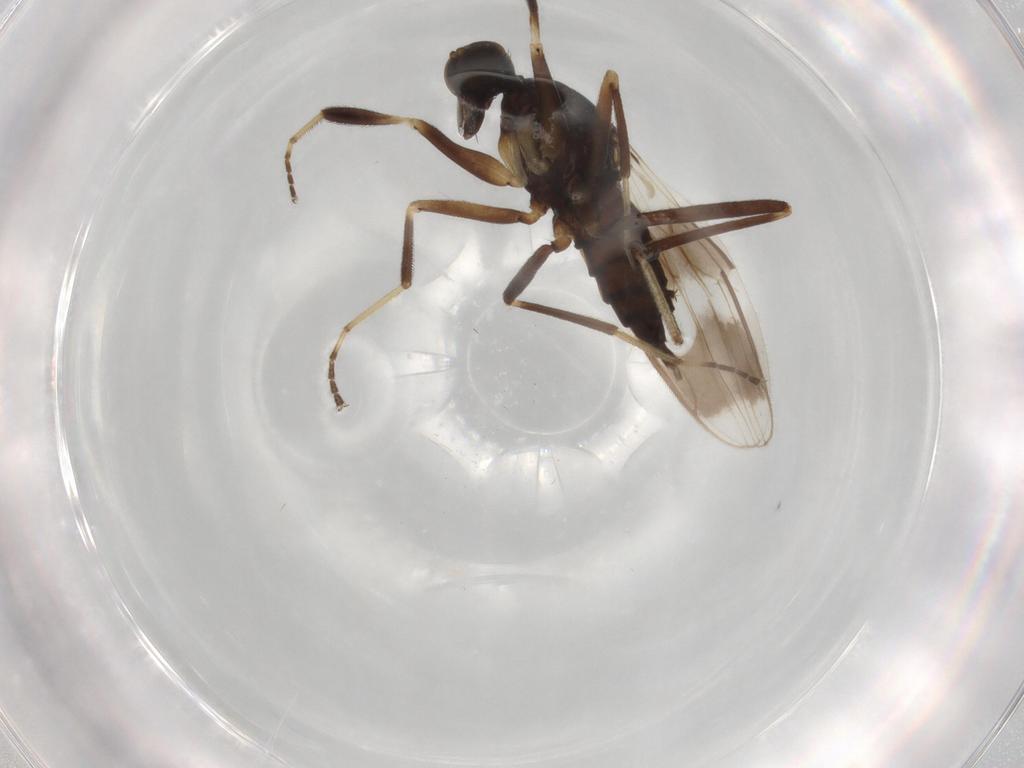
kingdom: Animalia
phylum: Arthropoda
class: Insecta
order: Diptera
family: Hybotidae
